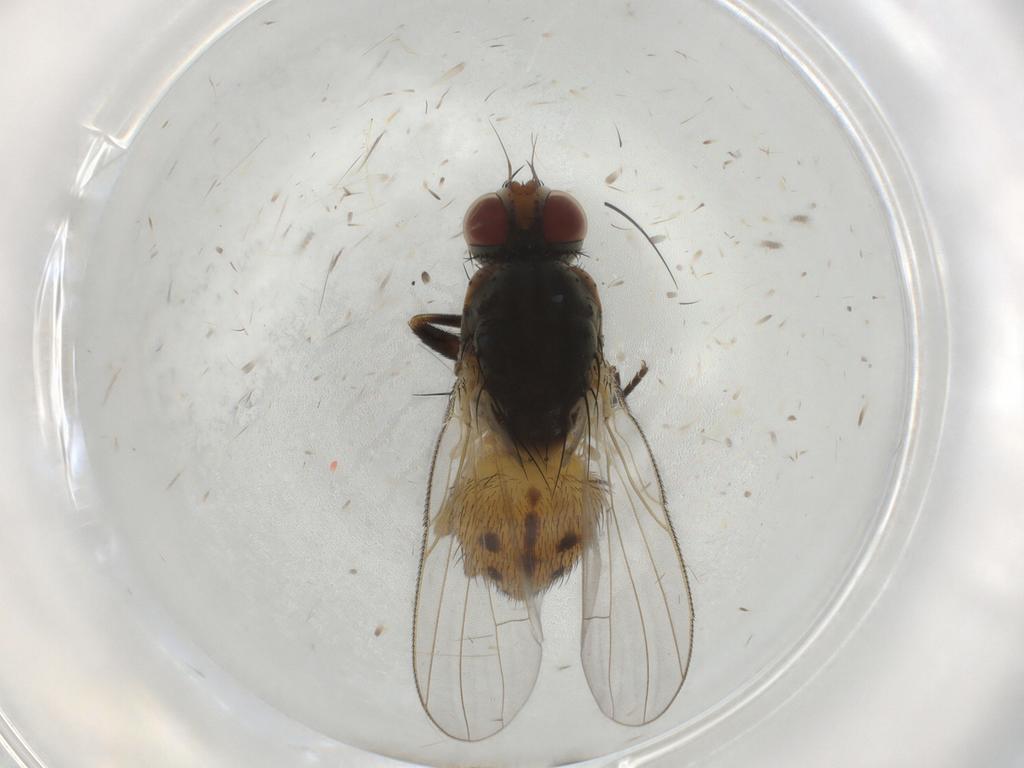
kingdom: Animalia
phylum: Arthropoda
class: Insecta
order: Diptera
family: Muscidae
